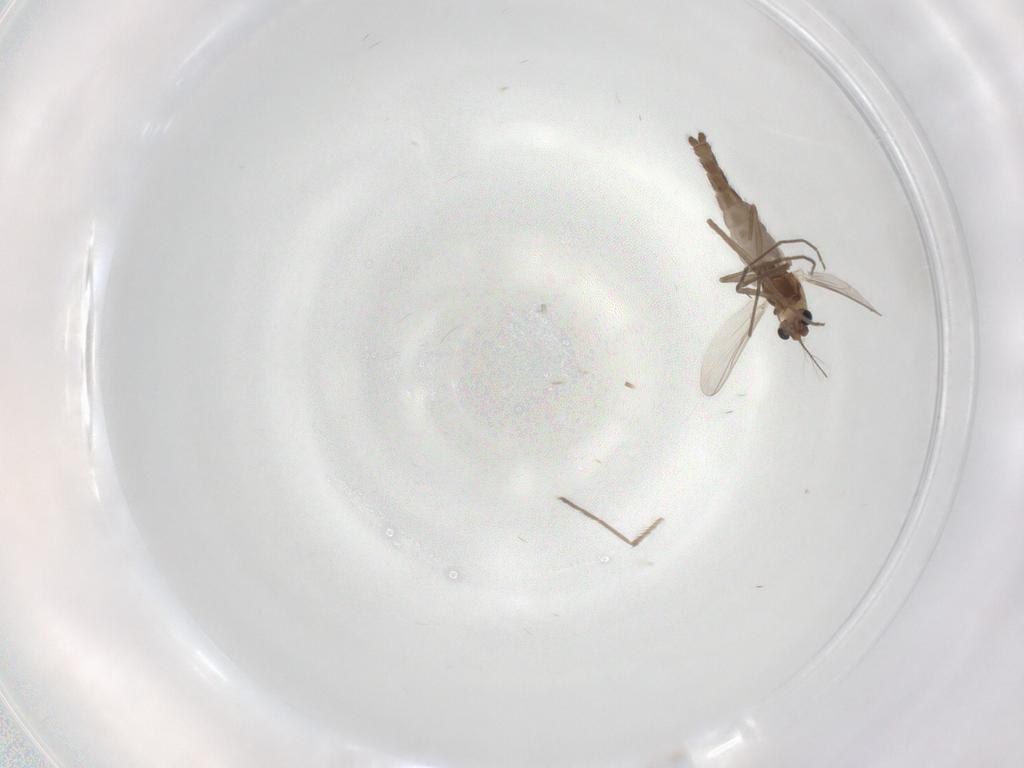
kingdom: Animalia
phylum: Arthropoda
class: Insecta
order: Diptera
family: Chironomidae
